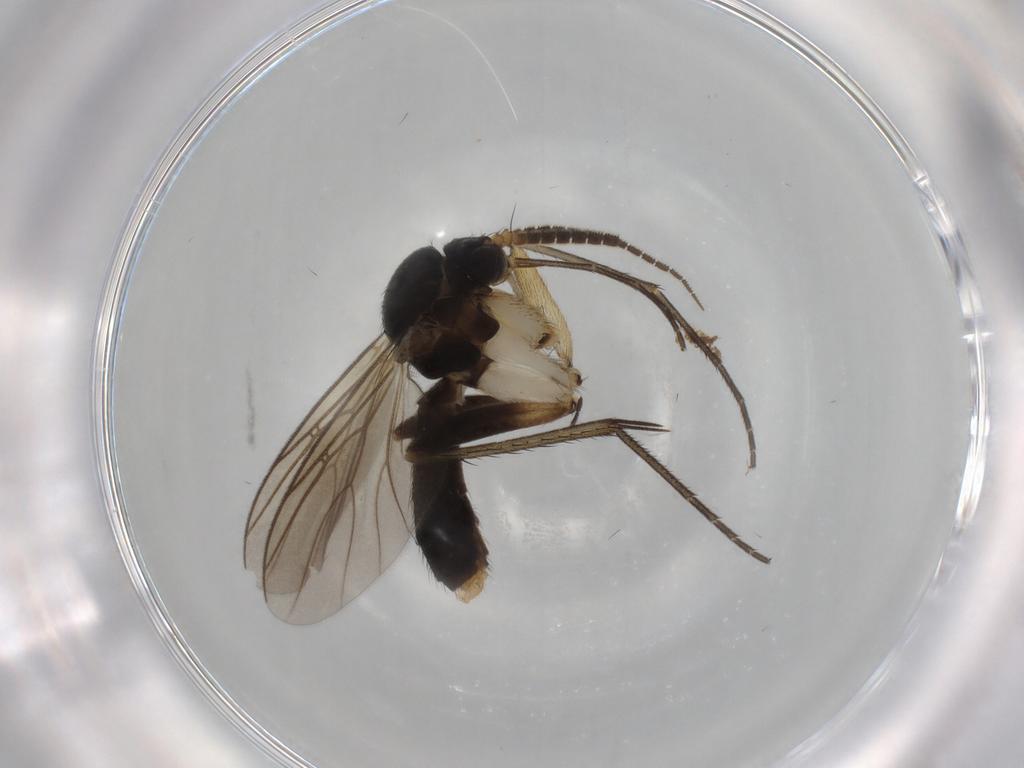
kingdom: Animalia
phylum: Arthropoda
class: Insecta
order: Diptera
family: Mycetophilidae
